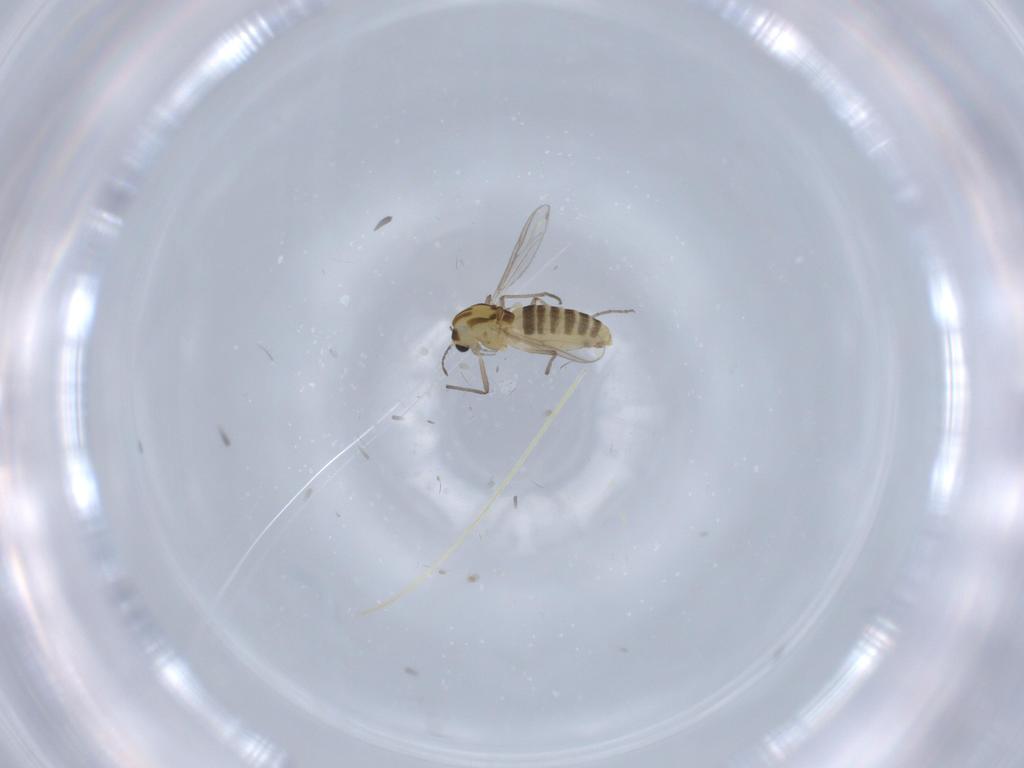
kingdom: Animalia
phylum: Arthropoda
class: Insecta
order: Diptera
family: Chironomidae
